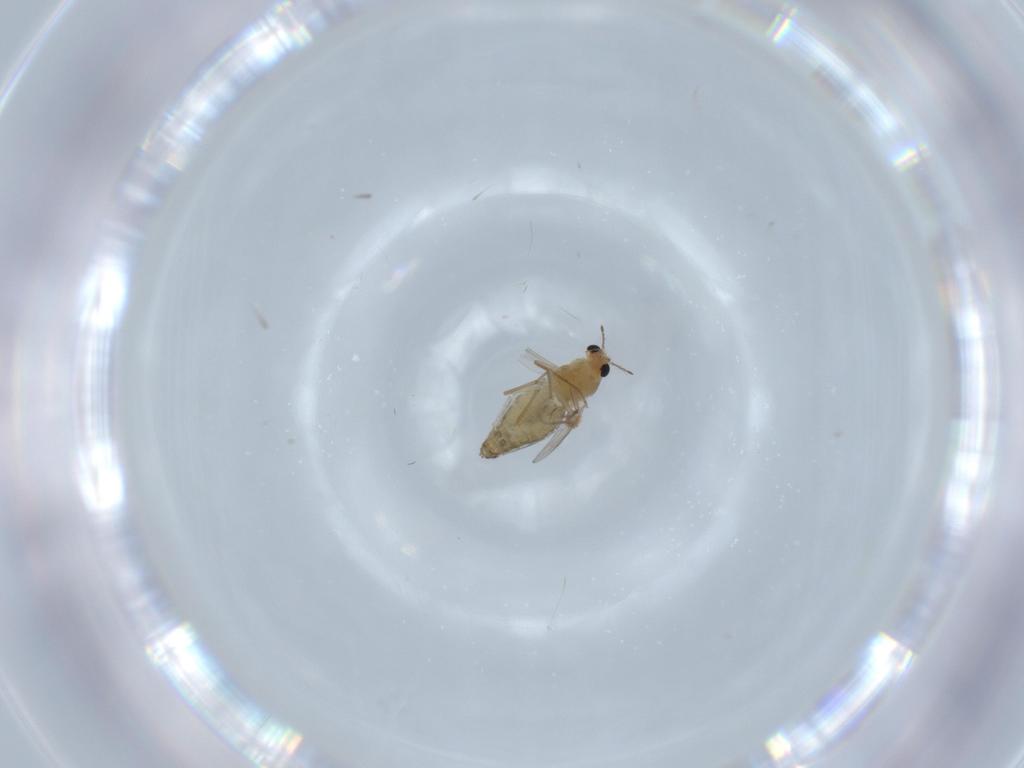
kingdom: Animalia
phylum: Arthropoda
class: Insecta
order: Diptera
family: Chironomidae
